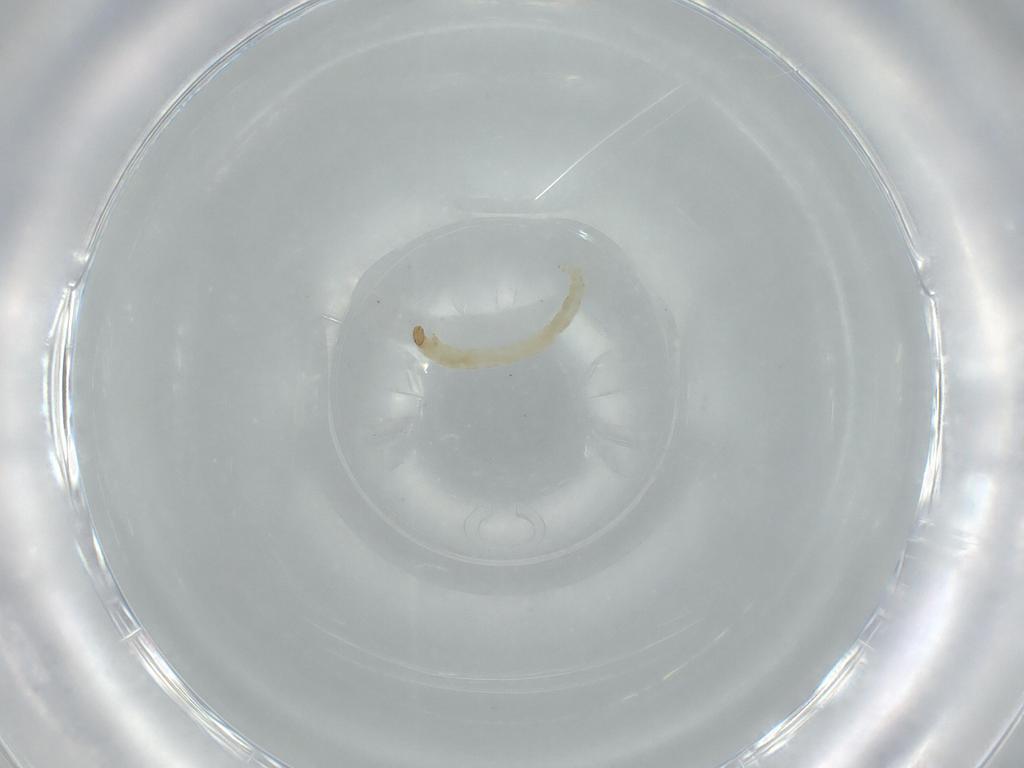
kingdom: Animalia
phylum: Arthropoda
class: Insecta
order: Diptera
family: Chironomidae
